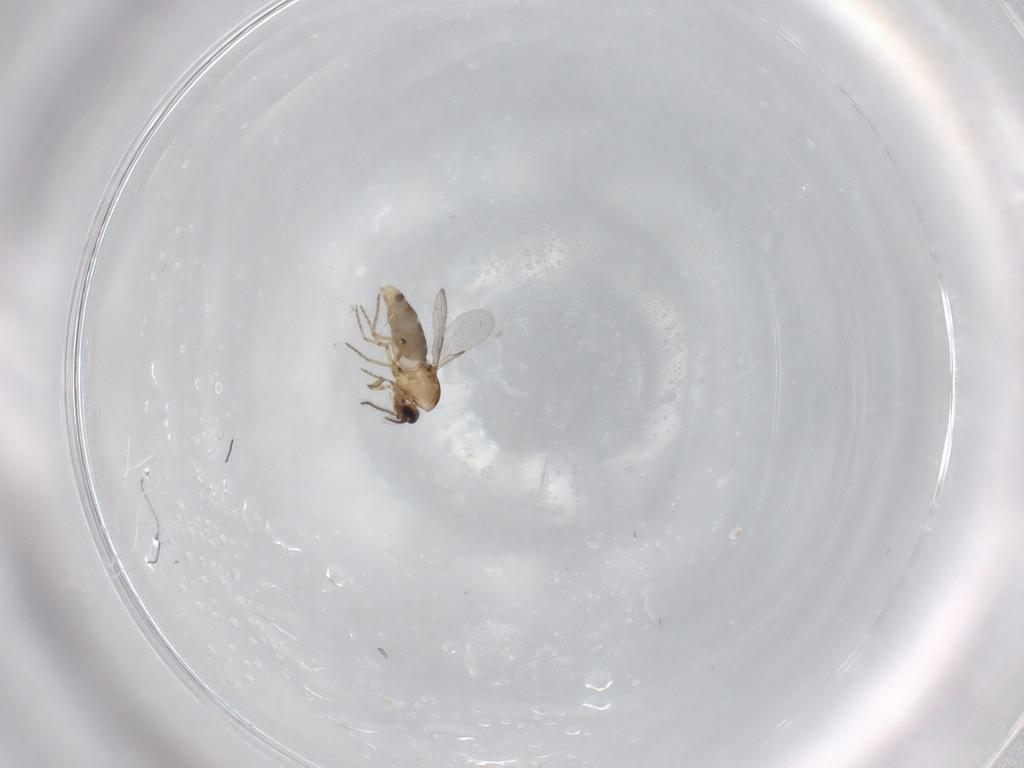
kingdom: Animalia
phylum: Arthropoda
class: Insecta
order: Diptera
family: Ceratopogonidae
